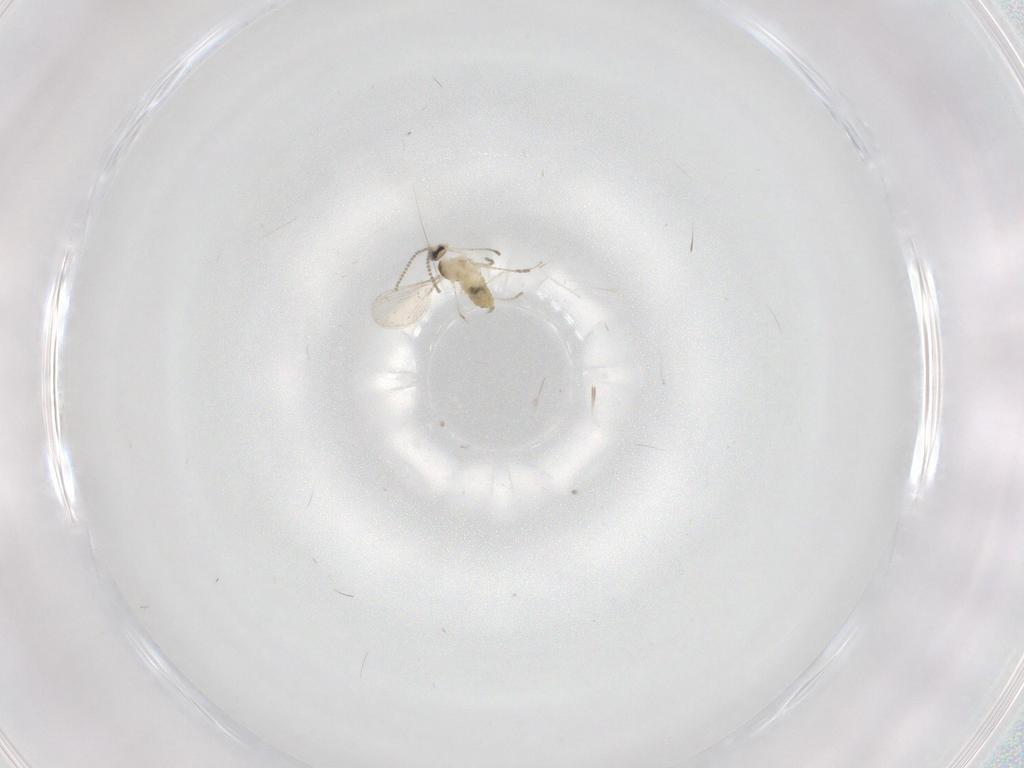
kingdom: Animalia
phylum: Arthropoda
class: Insecta
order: Diptera
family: Cecidomyiidae
